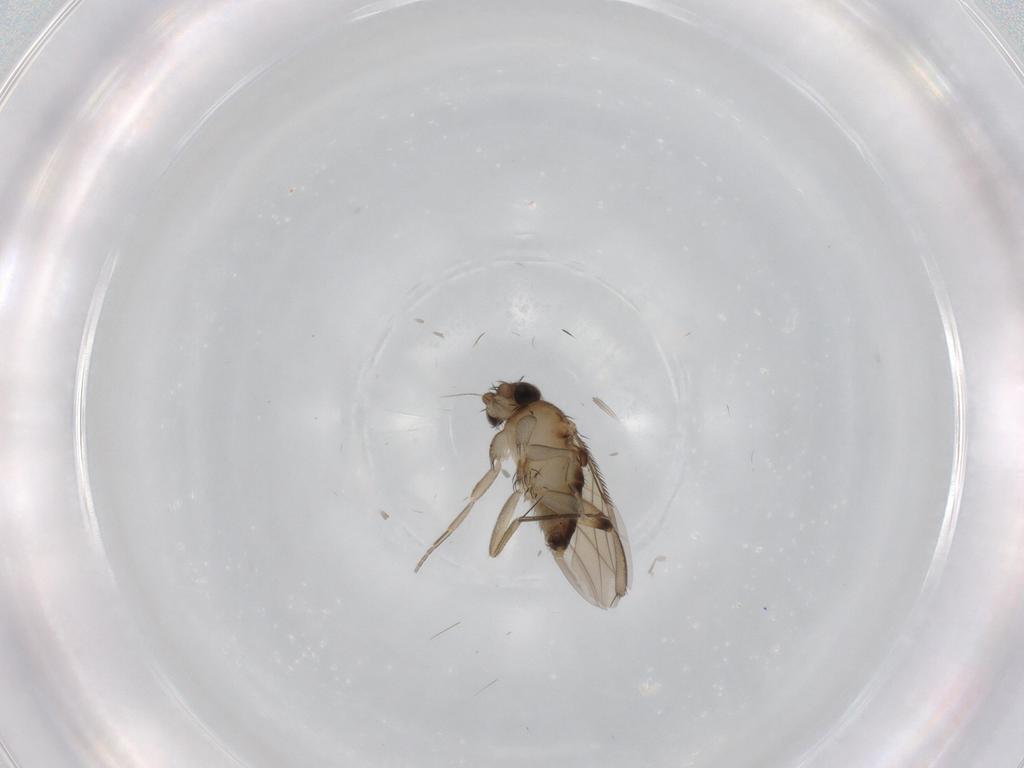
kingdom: Animalia
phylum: Arthropoda
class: Insecta
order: Diptera
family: Phoridae
